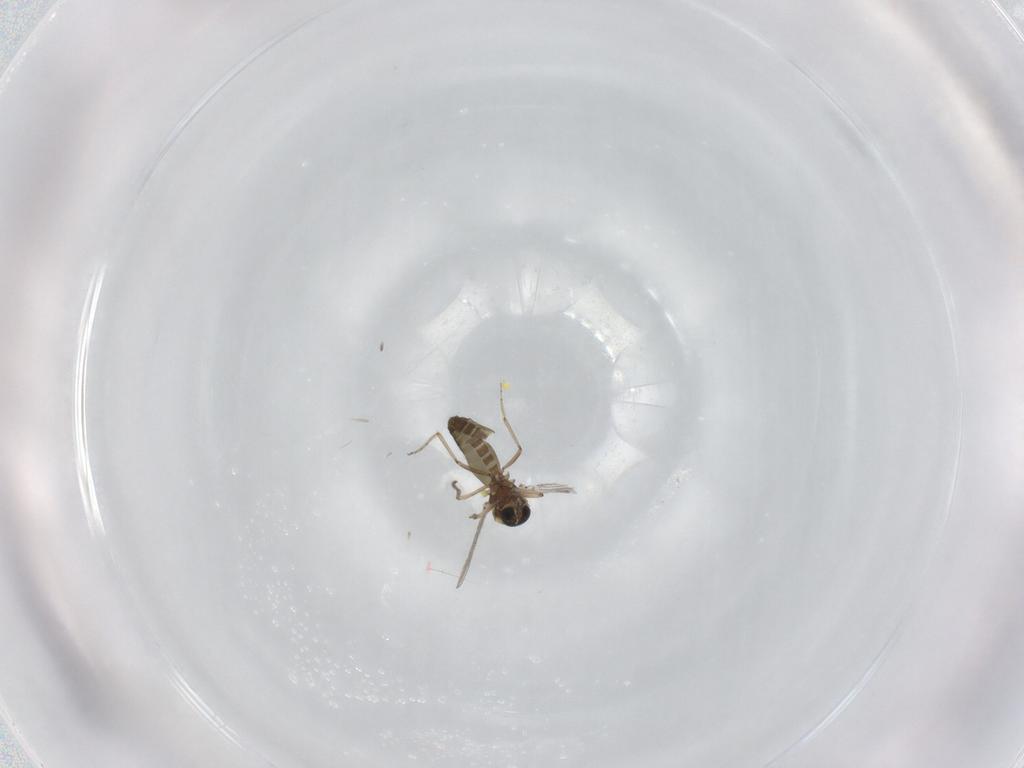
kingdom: Animalia
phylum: Arthropoda
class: Insecta
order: Diptera
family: Ceratopogonidae
